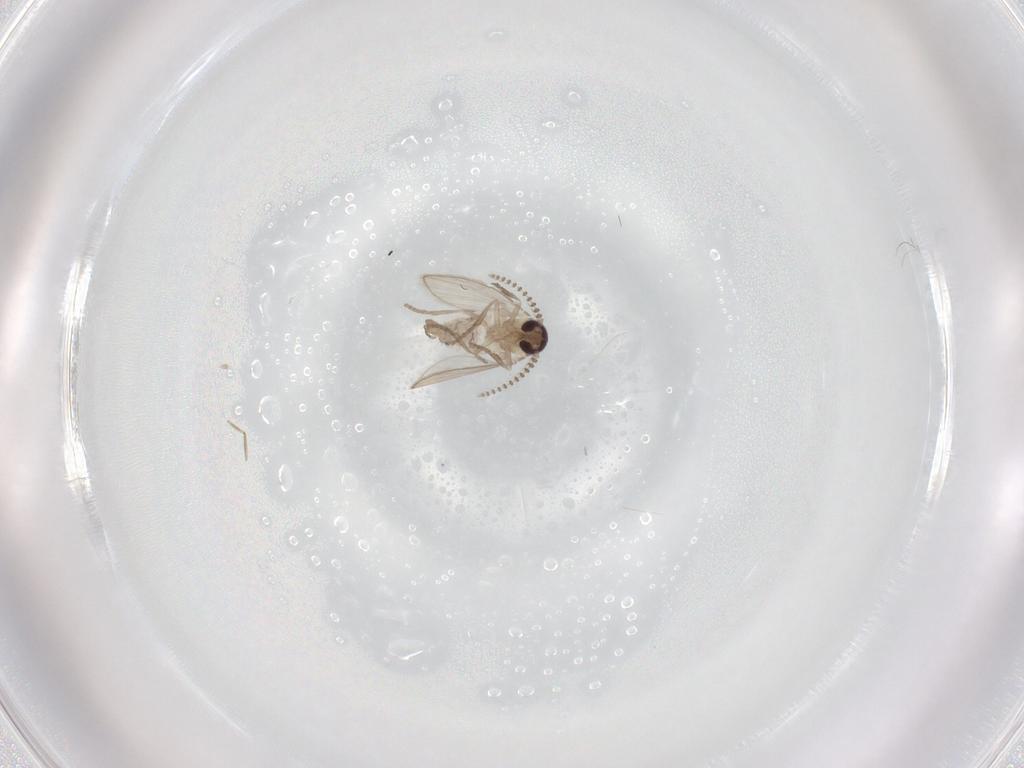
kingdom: Animalia
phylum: Arthropoda
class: Insecta
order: Diptera
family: Psychodidae
